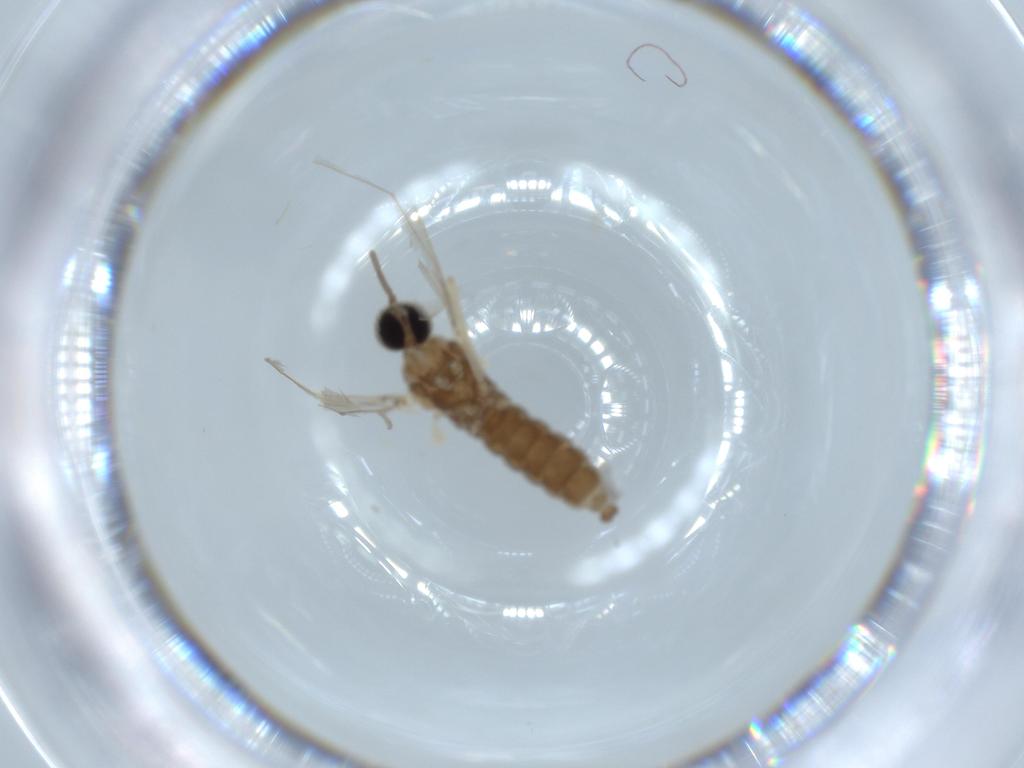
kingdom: Animalia
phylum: Arthropoda
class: Insecta
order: Diptera
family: Cecidomyiidae
